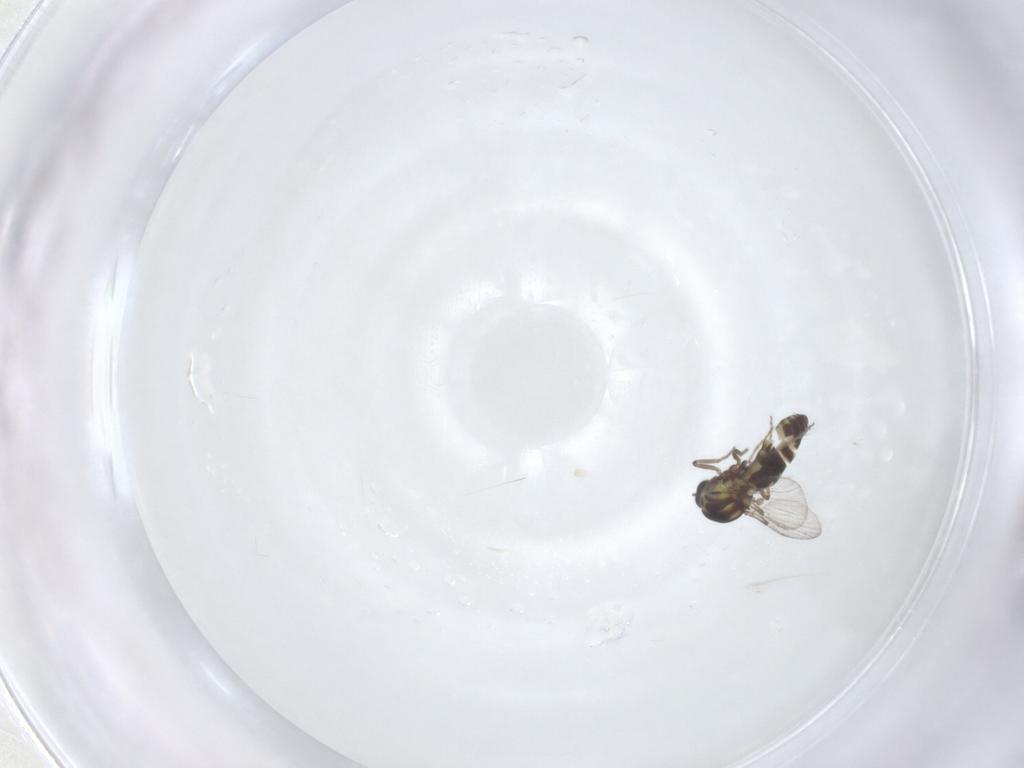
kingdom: Animalia
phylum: Arthropoda
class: Insecta
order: Diptera
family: Ceratopogonidae
